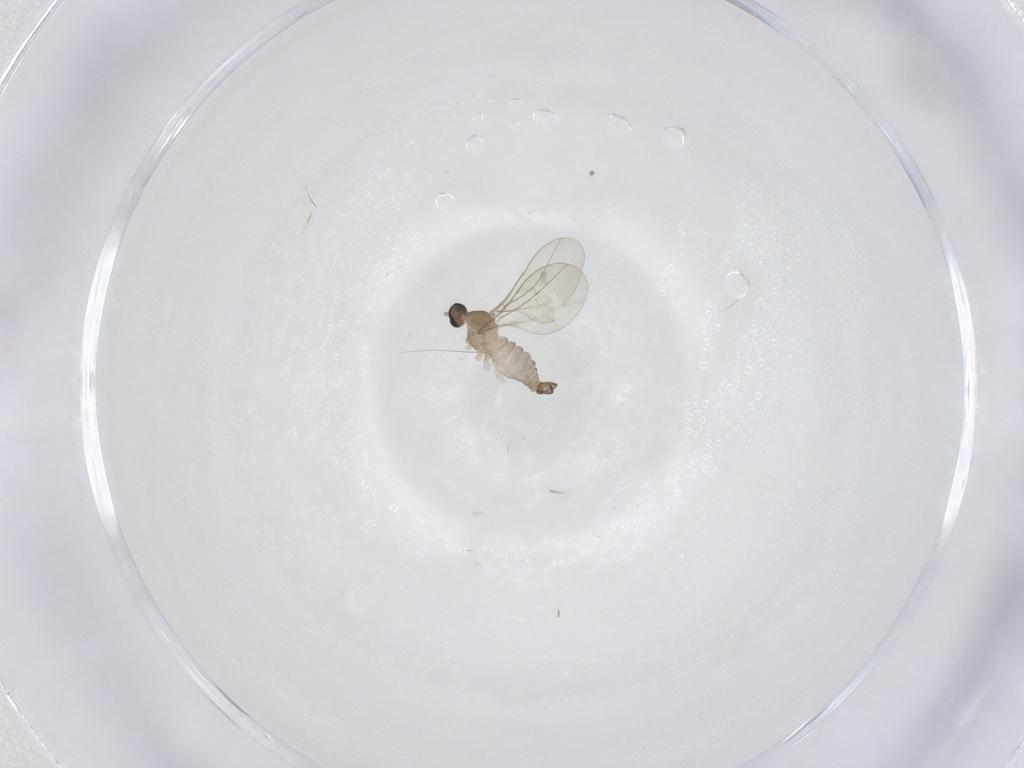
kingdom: Animalia
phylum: Arthropoda
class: Insecta
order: Diptera
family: Cecidomyiidae
